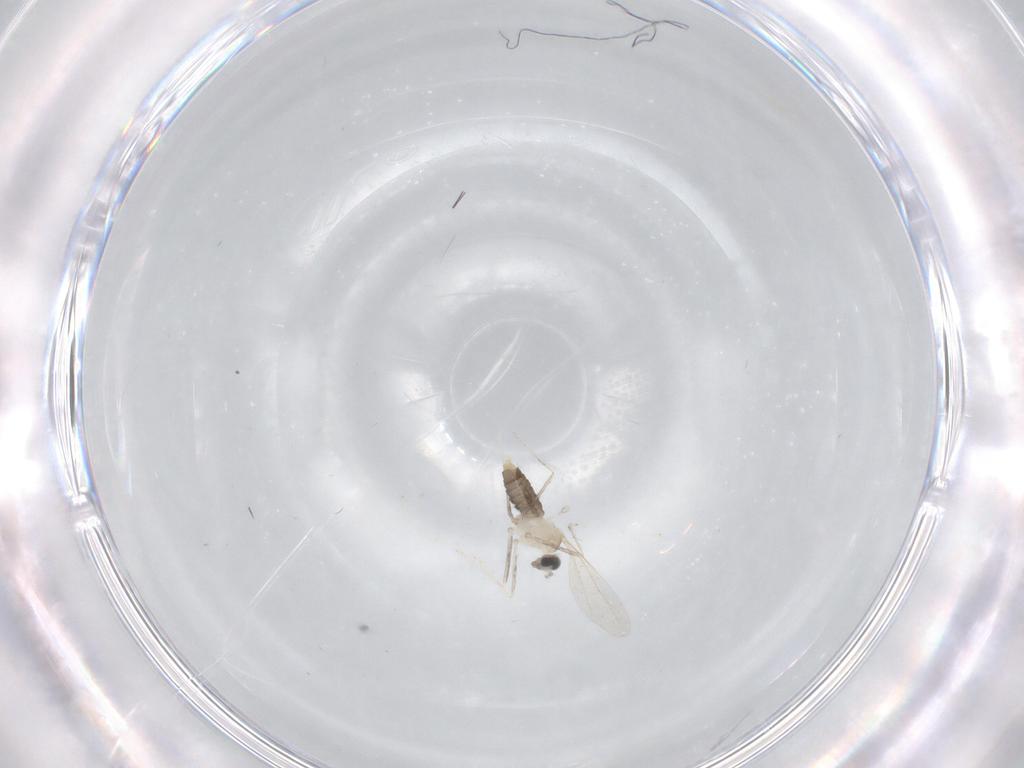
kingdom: Animalia
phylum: Arthropoda
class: Insecta
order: Diptera
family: Cecidomyiidae
